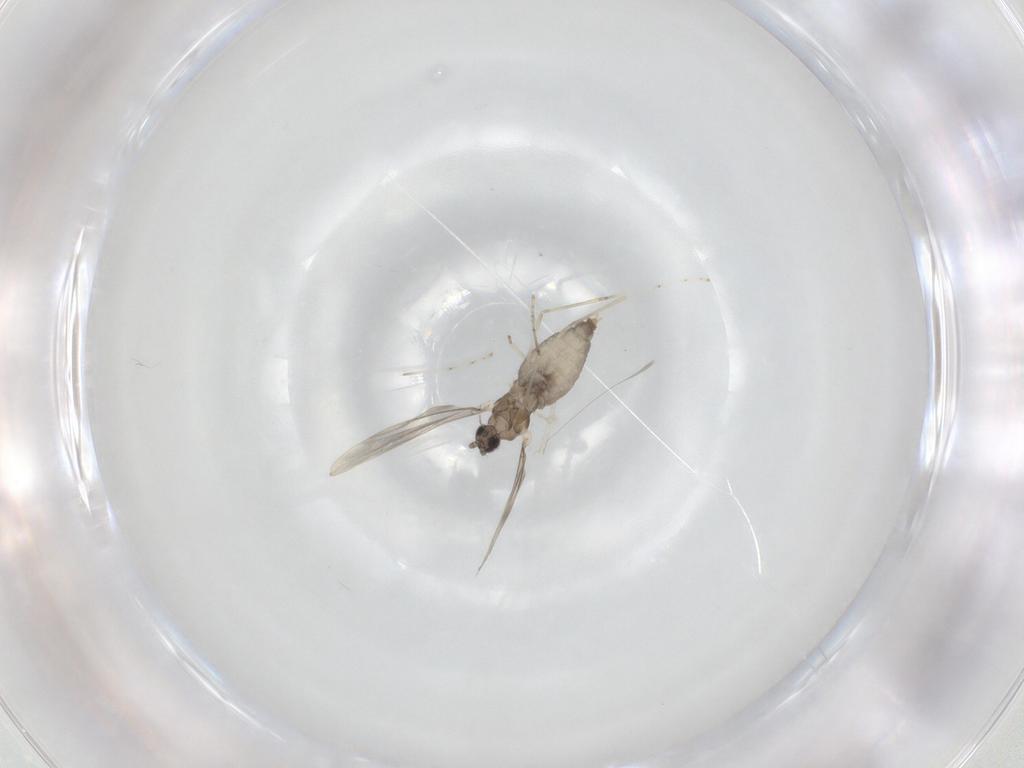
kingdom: Animalia
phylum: Arthropoda
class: Insecta
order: Diptera
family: Cecidomyiidae
